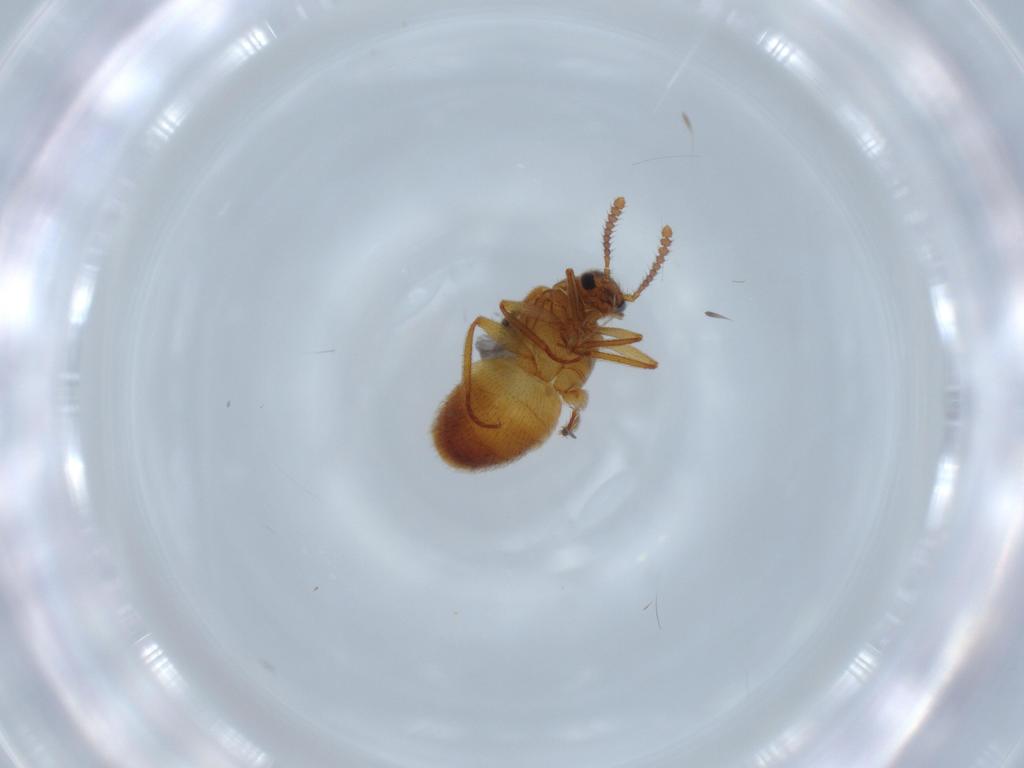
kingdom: Animalia
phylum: Arthropoda
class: Insecta
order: Coleoptera
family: Staphylinidae
